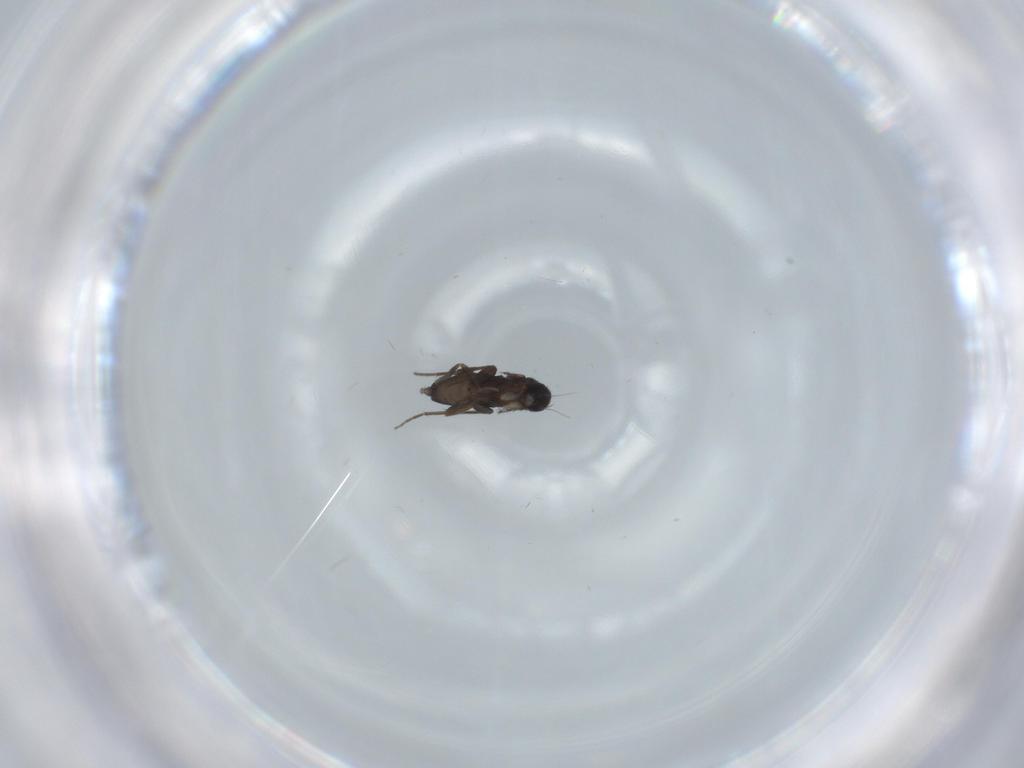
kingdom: Animalia
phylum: Arthropoda
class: Insecta
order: Diptera
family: Phoridae
